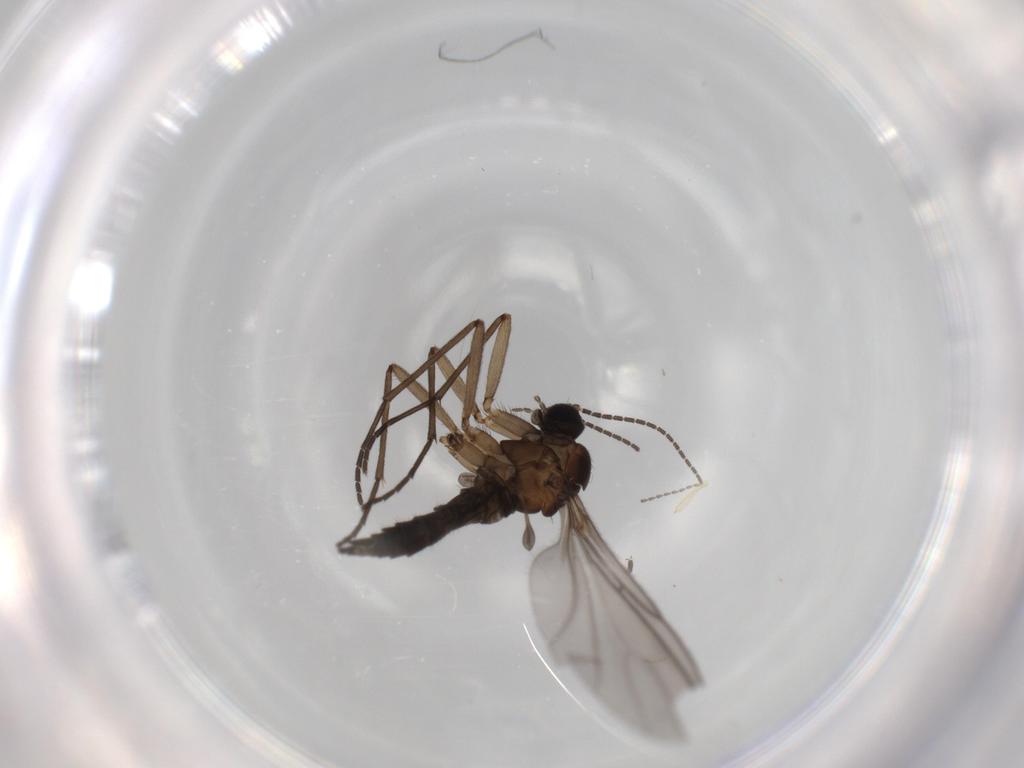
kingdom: Animalia
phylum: Arthropoda
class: Insecta
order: Diptera
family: Sciaridae
